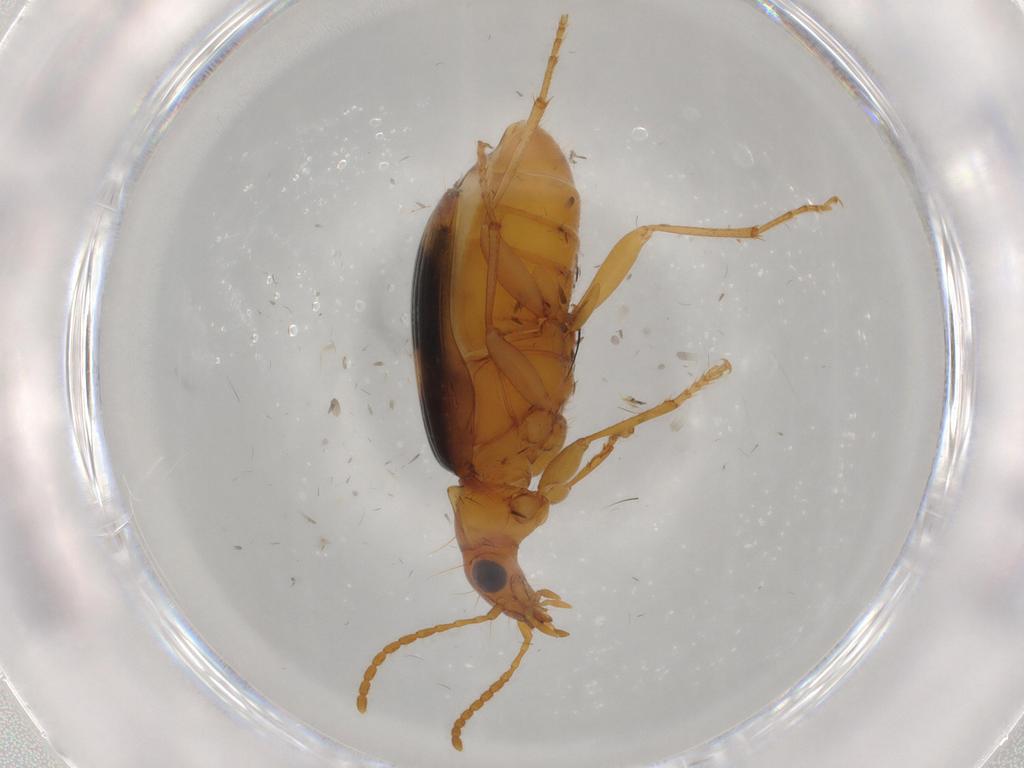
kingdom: Animalia
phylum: Arthropoda
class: Insecta
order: Coleoptera
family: Carabidae
